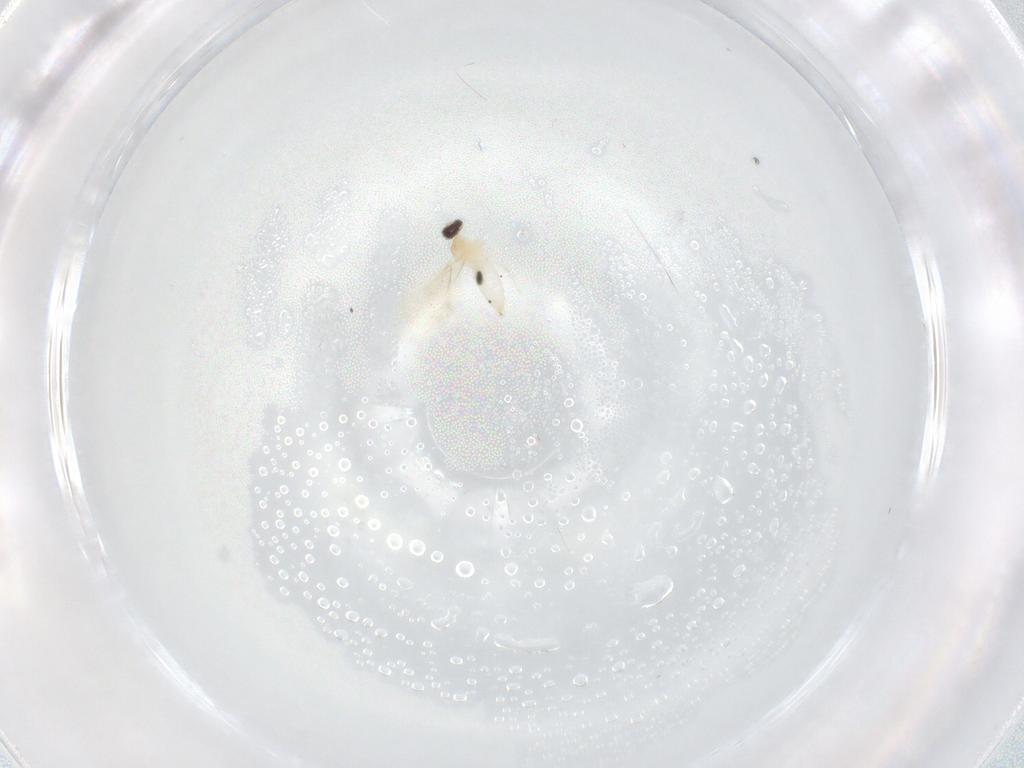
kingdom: Animalia
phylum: Arthropoda
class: Insecta
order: Diptera
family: Cecidomyiidae
